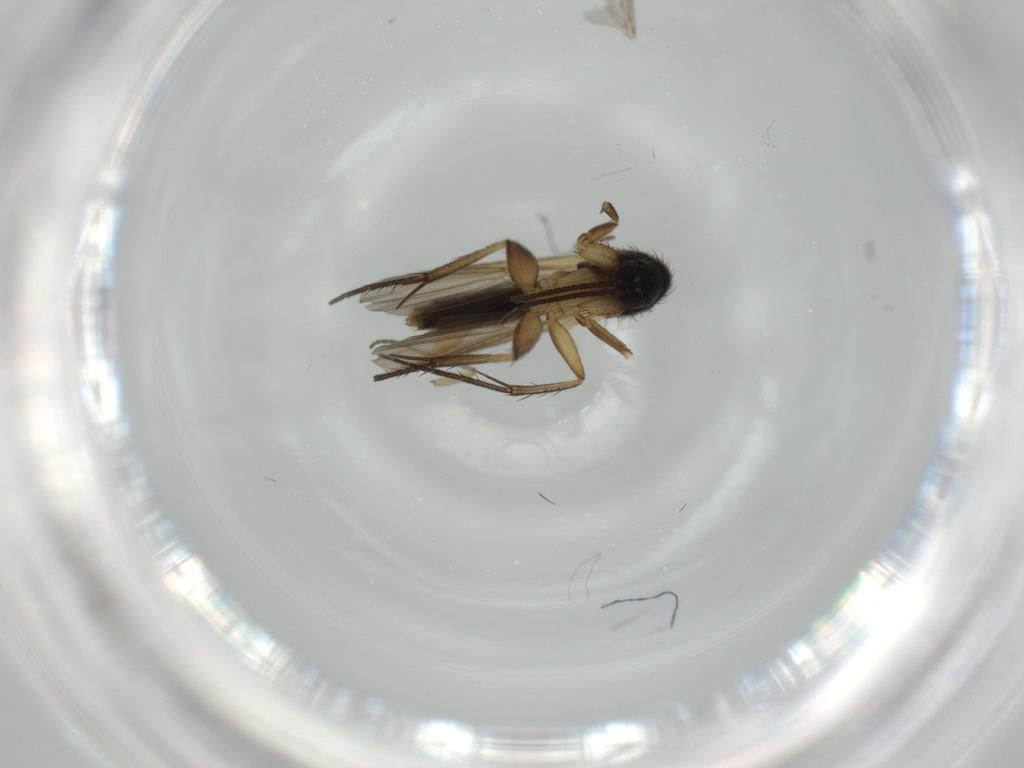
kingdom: Animalia
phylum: Arthropoda
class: Insecta
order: Diptera
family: Mycetophilidae
